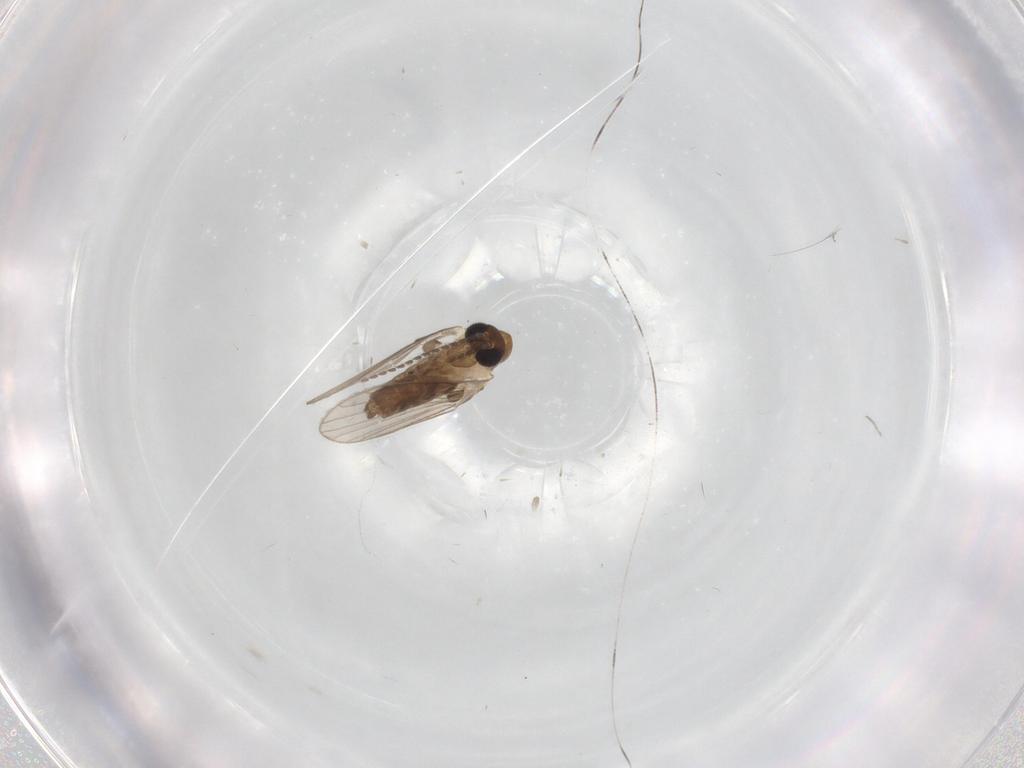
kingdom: Animalia
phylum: Arthropoda
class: Insecta
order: Diptera
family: Psychodidae
